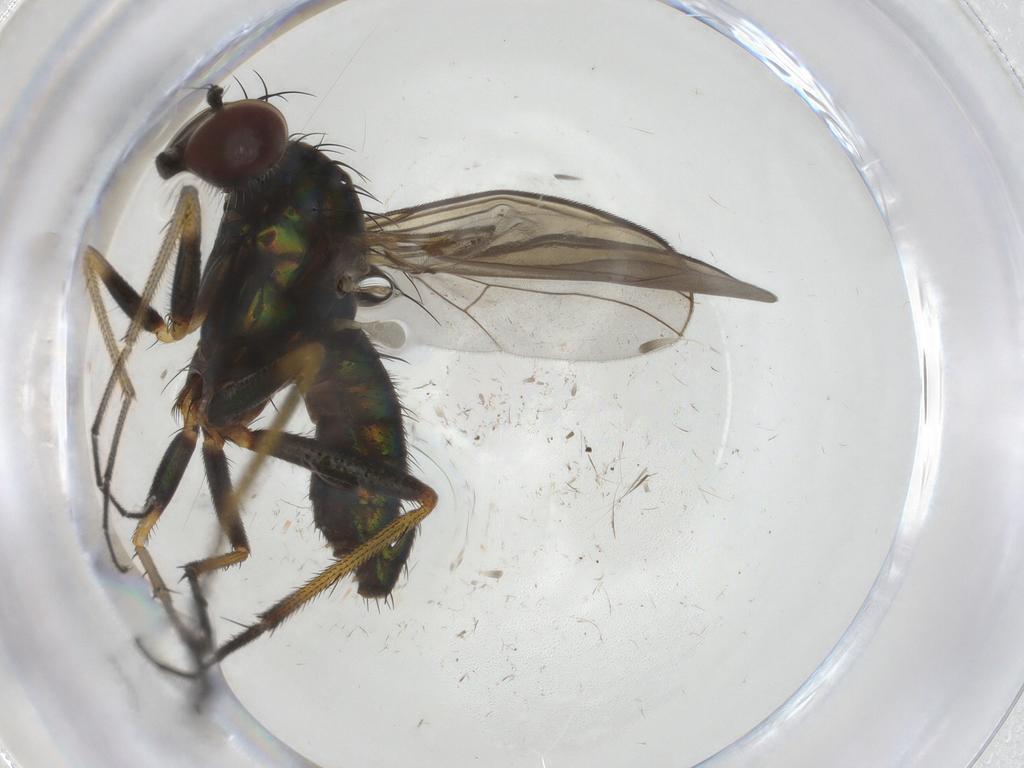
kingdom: Animalia
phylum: Arthropoda
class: Insecta
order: Diptera
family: Dolichopodidae
